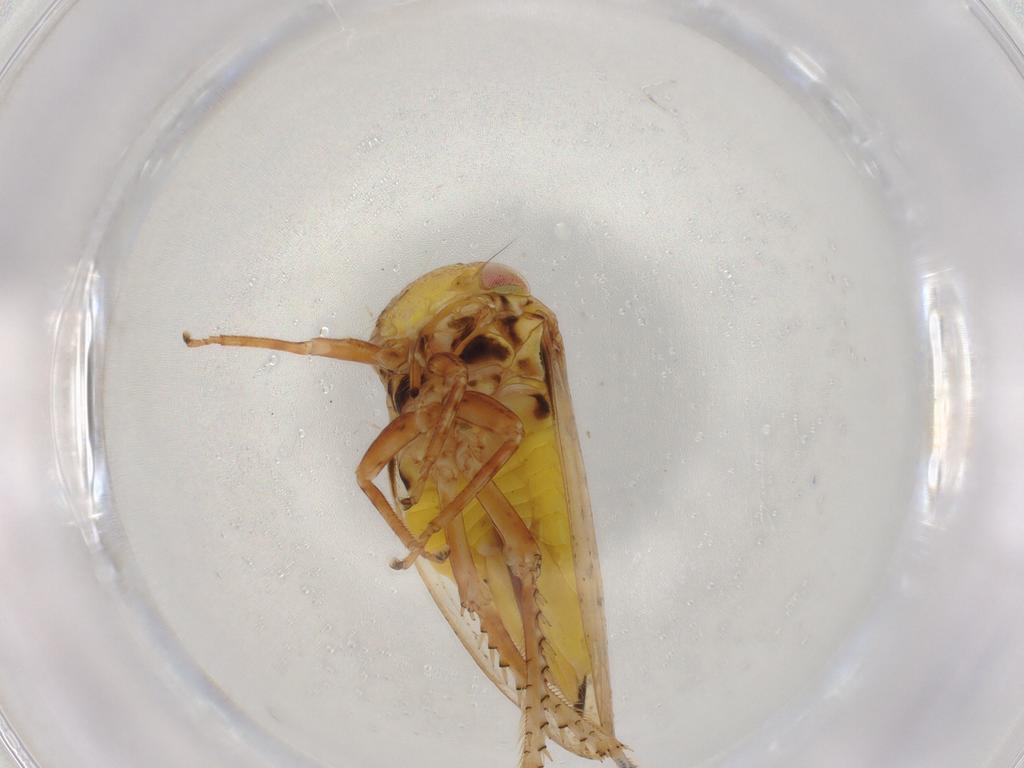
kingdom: Animalia
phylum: Arthropoda
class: Insecta
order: Hemiptera
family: Cicadellidae
